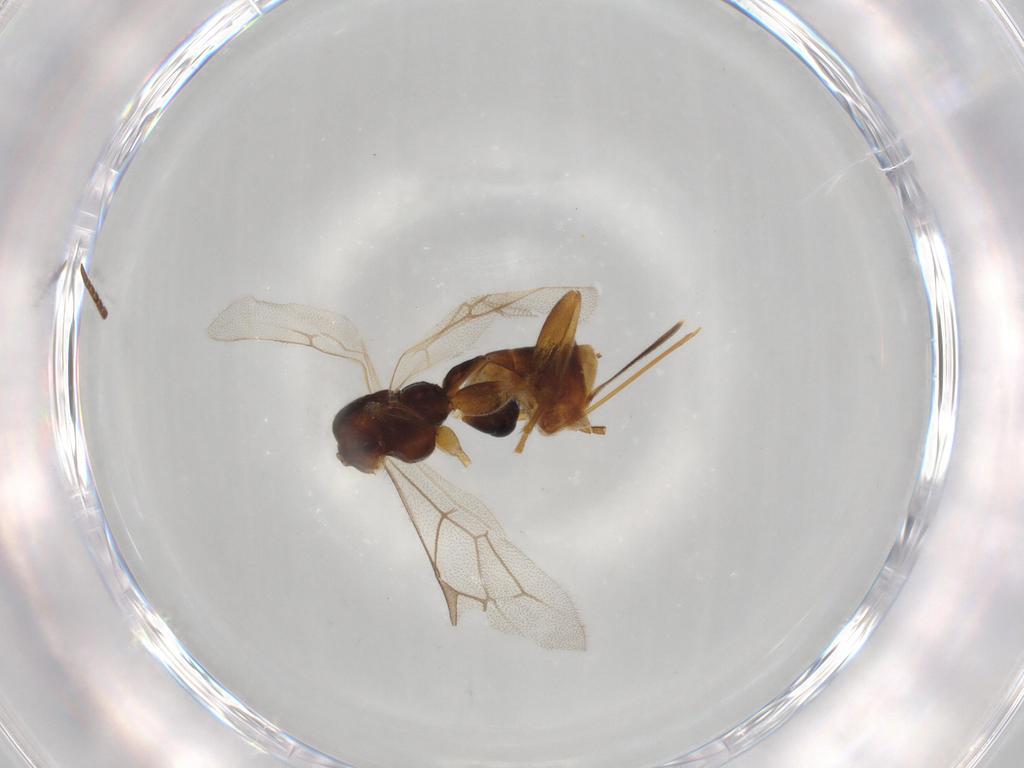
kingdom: Animalia
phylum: Arthropoda
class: Insecta
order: Hymenoptera
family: Ichneumonidae
